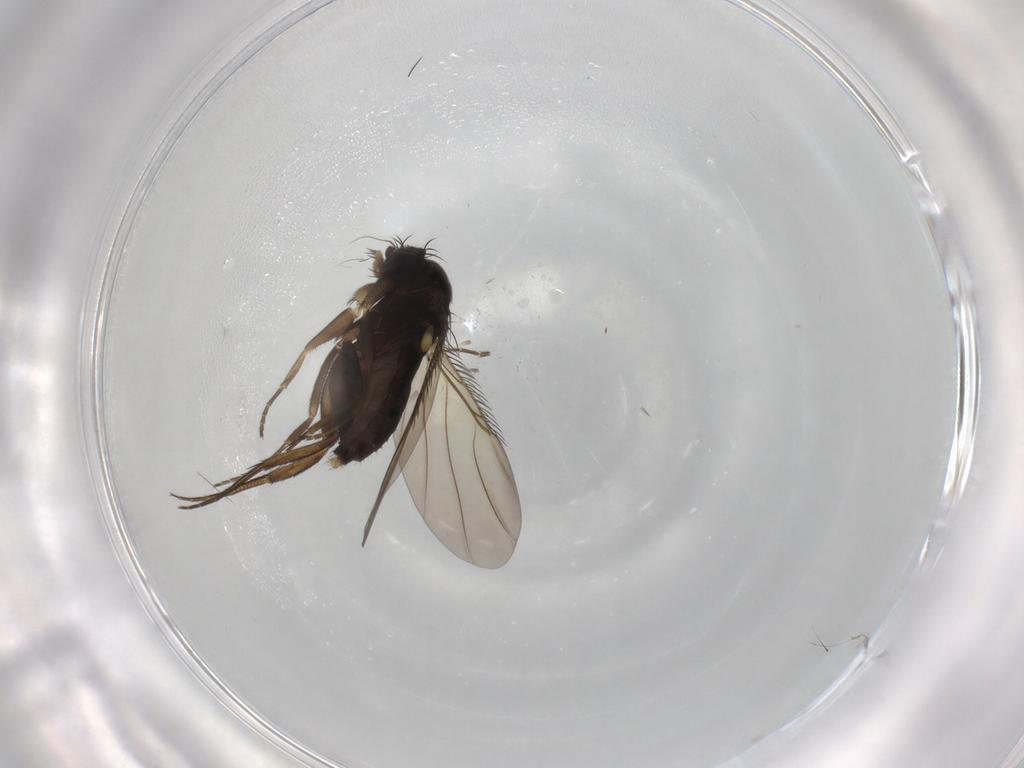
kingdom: Animalia
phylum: Arthropoda
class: Insecta
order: Diptera
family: Phoridae
